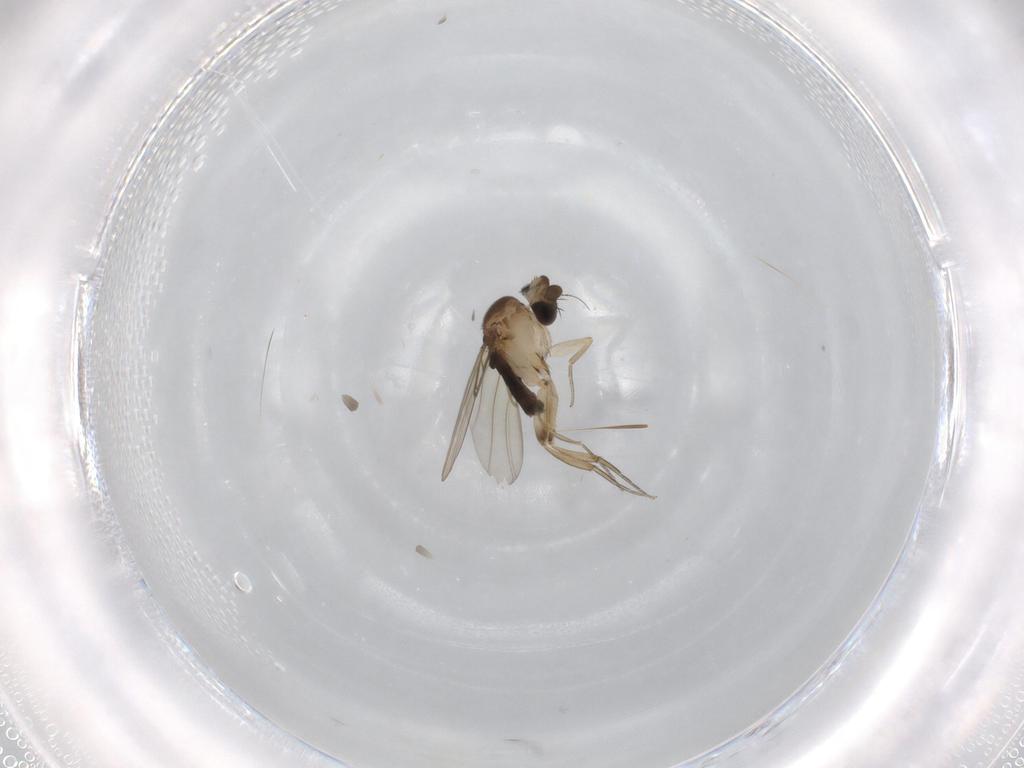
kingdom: Animalia
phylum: Arthropoda
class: Insecta
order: Diptera
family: Phoridae
